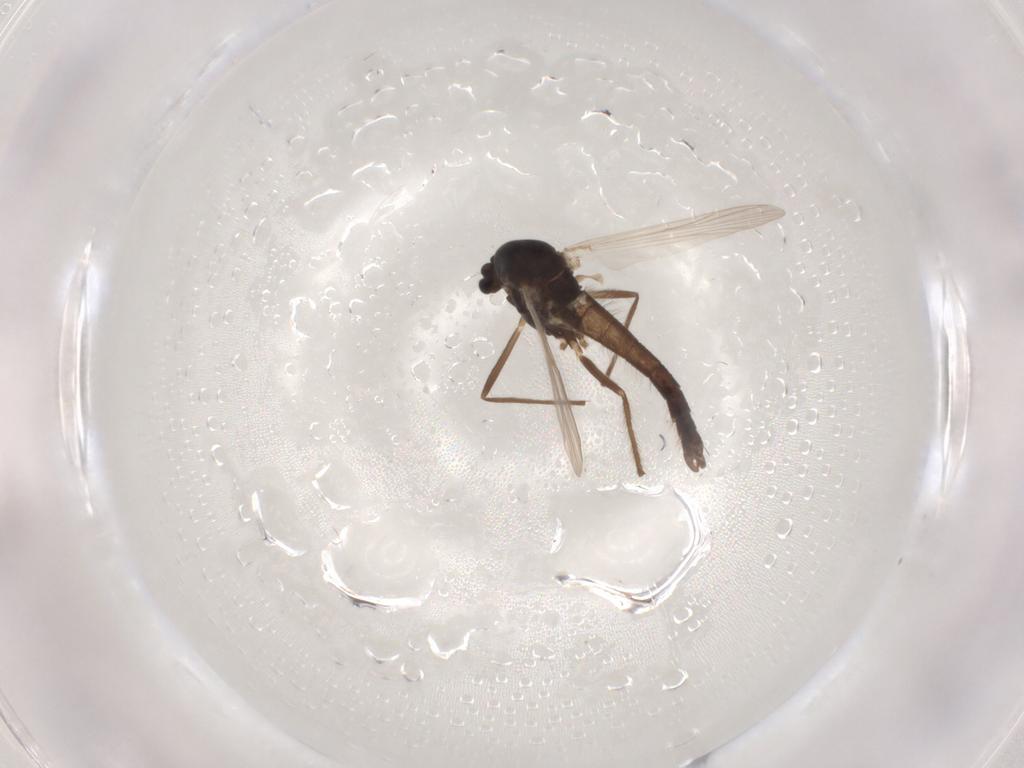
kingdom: Animalia
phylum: Arthropoda
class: Insecta
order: Diptera
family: Chironomidae
